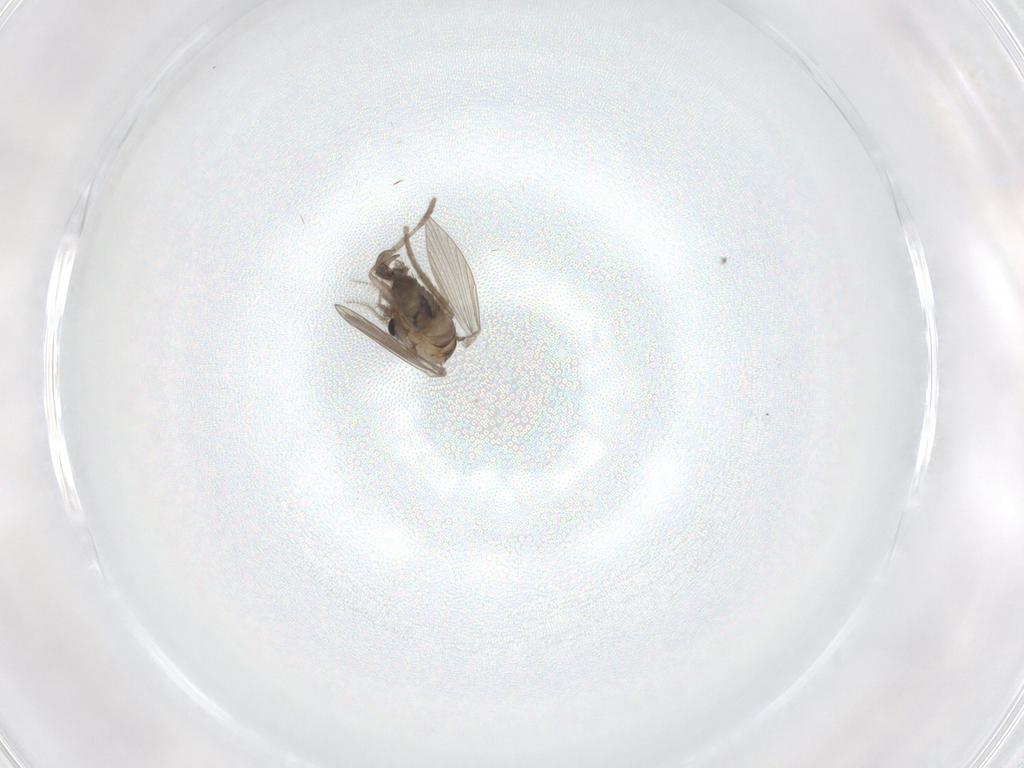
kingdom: Animalia
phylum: Arthropoda
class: Insecta
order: Diptera
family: Psychodidae
